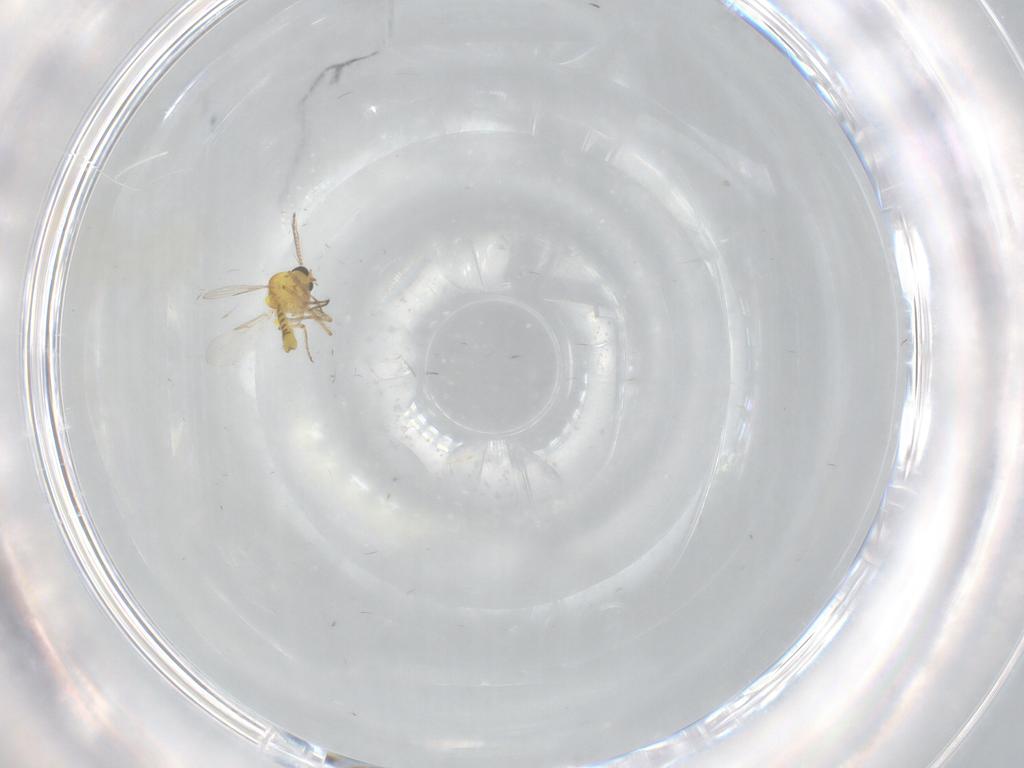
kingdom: Animalia
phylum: Arthropoda
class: Insecta
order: Diptera
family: Ceratopogonidae
